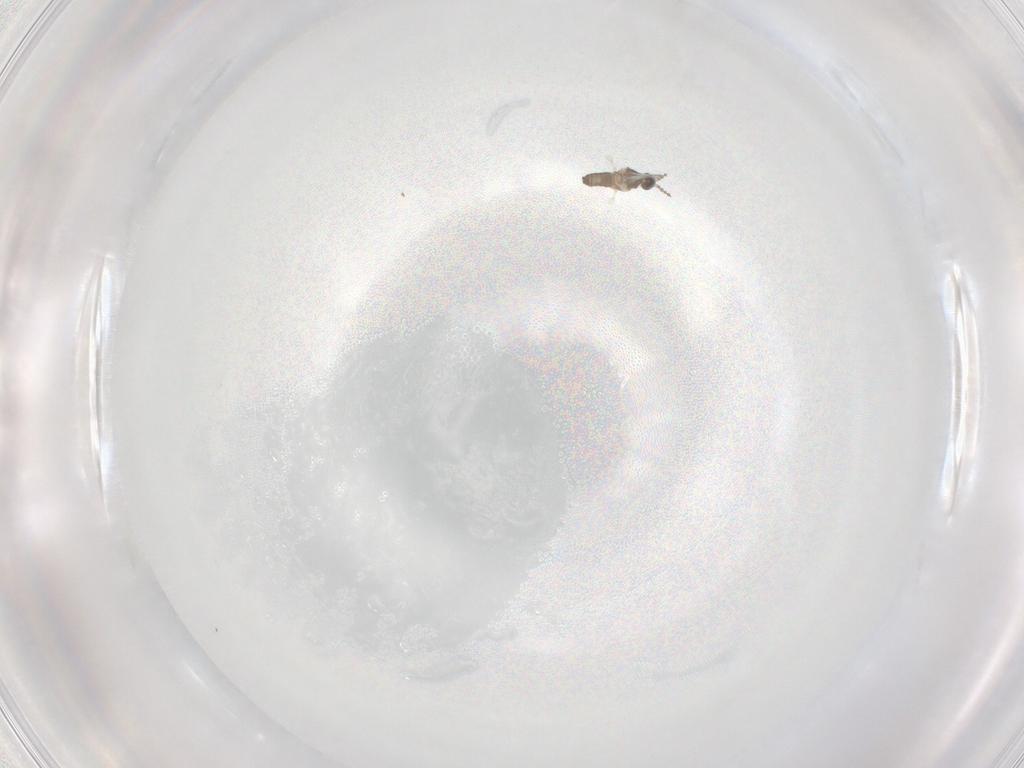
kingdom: Animalia
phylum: Arthropoda
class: Insecta
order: Diptera
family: Cecidomyiidae
